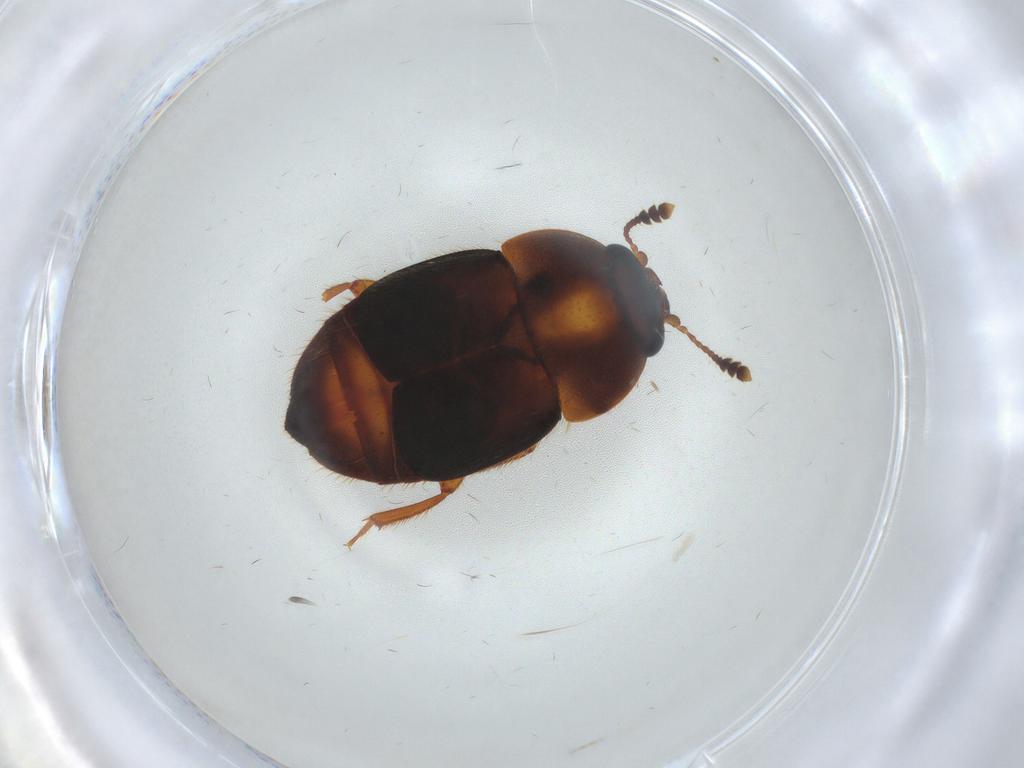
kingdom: Animalia
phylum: Arthropoda
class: Insecta
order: Coleoptera
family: Nitidulidae
